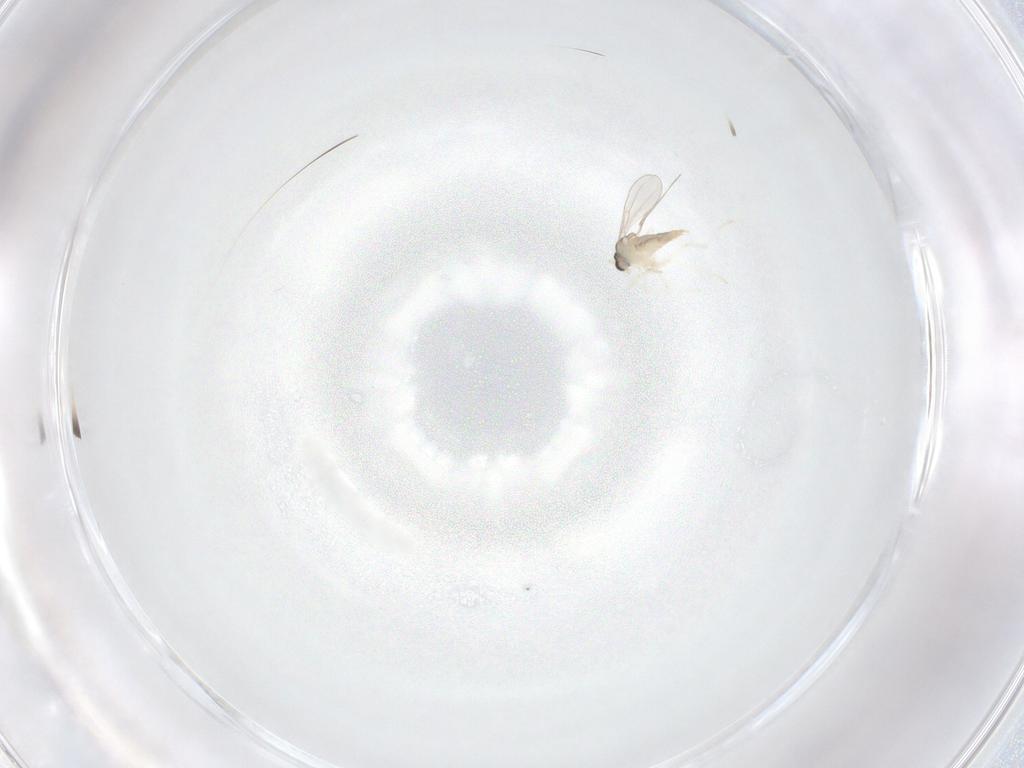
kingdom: Animalia
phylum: Arthropoda
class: Insecta
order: Diptera
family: Cecidomyiidae
